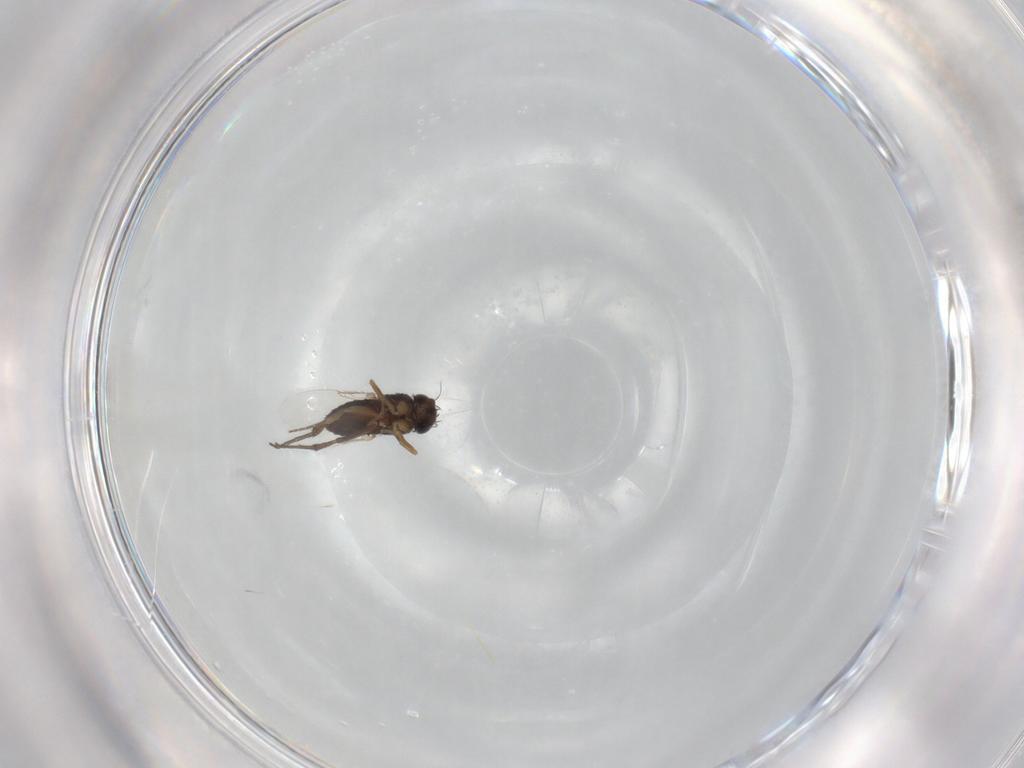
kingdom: Animalia
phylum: Arthropoda
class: Insecta
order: Diptera
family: Phoridae
